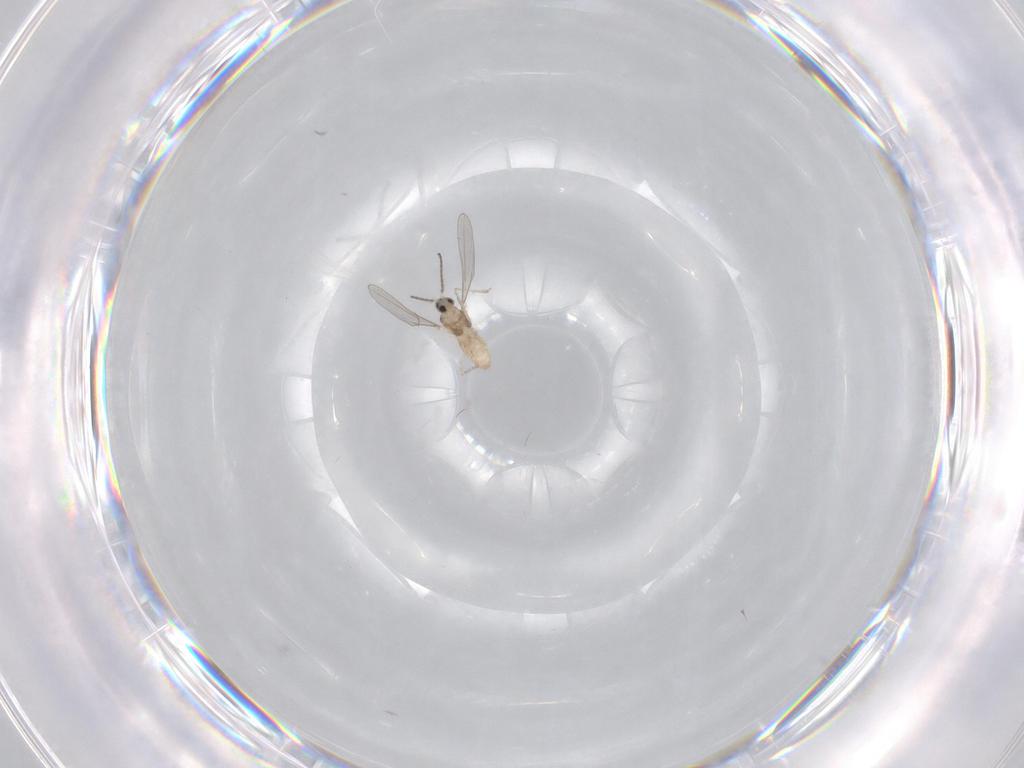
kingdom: Animalia
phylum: Arthropoda
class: Insecta
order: Diptera
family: Cecidomyiidae
